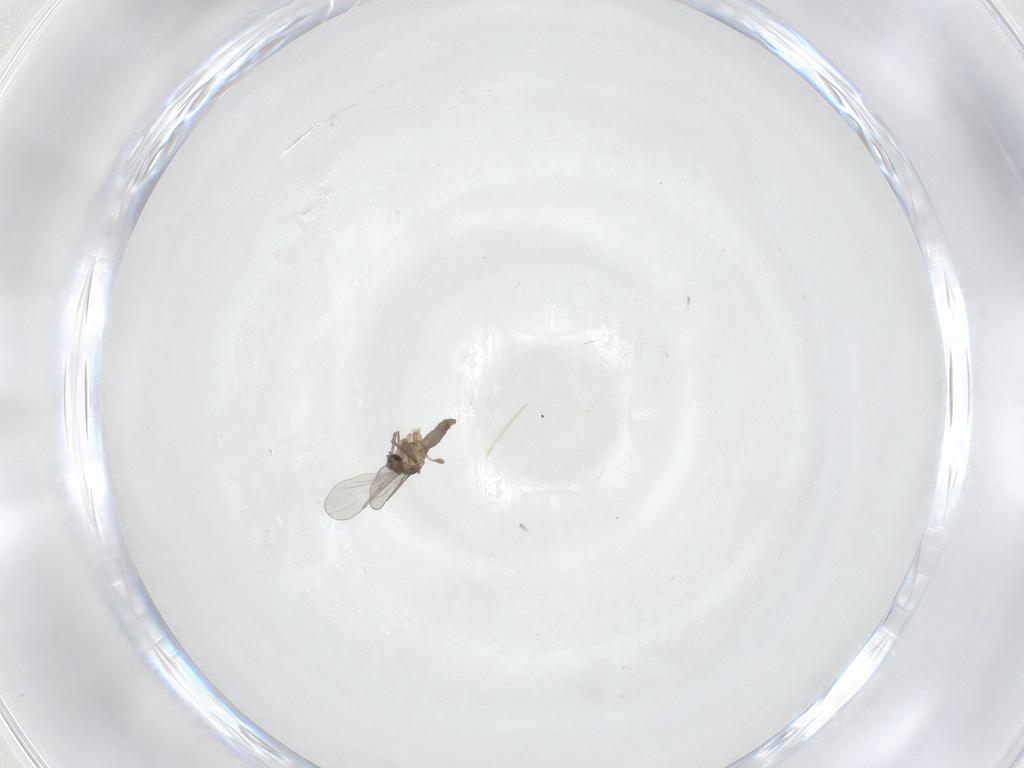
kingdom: Animalia
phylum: Arthropoda
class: Insecta
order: Diptera
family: Cecidomyiidae
